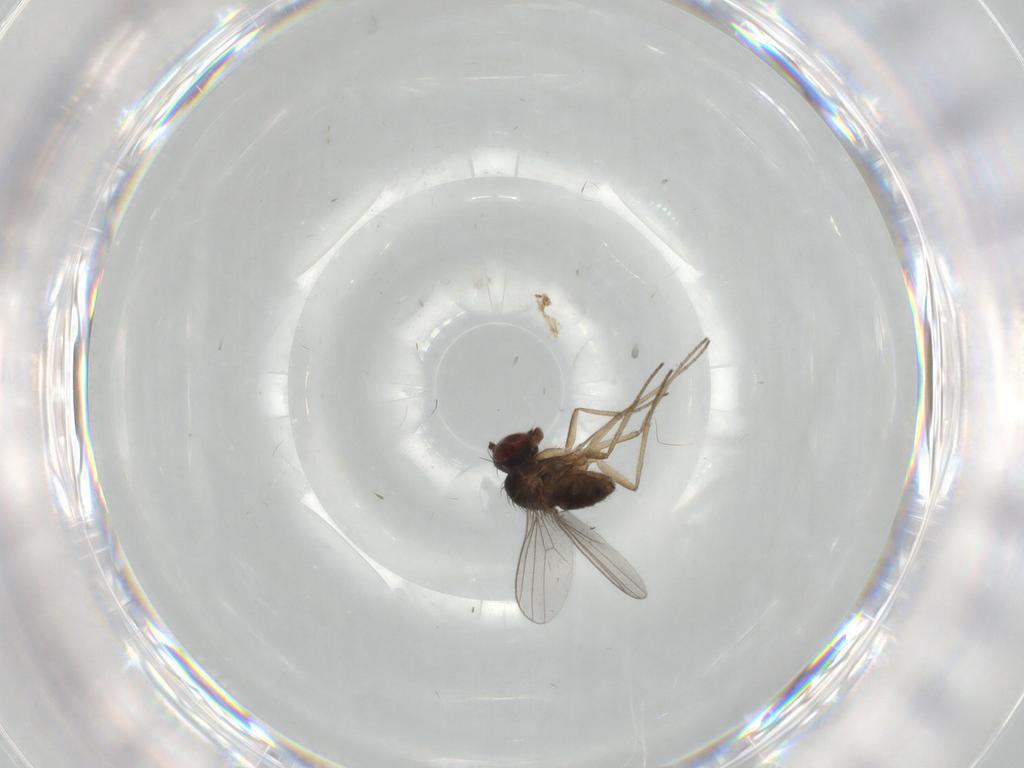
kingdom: Animalia
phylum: Arthropoda
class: Insecta
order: Diptera
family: Dolichopodidae
